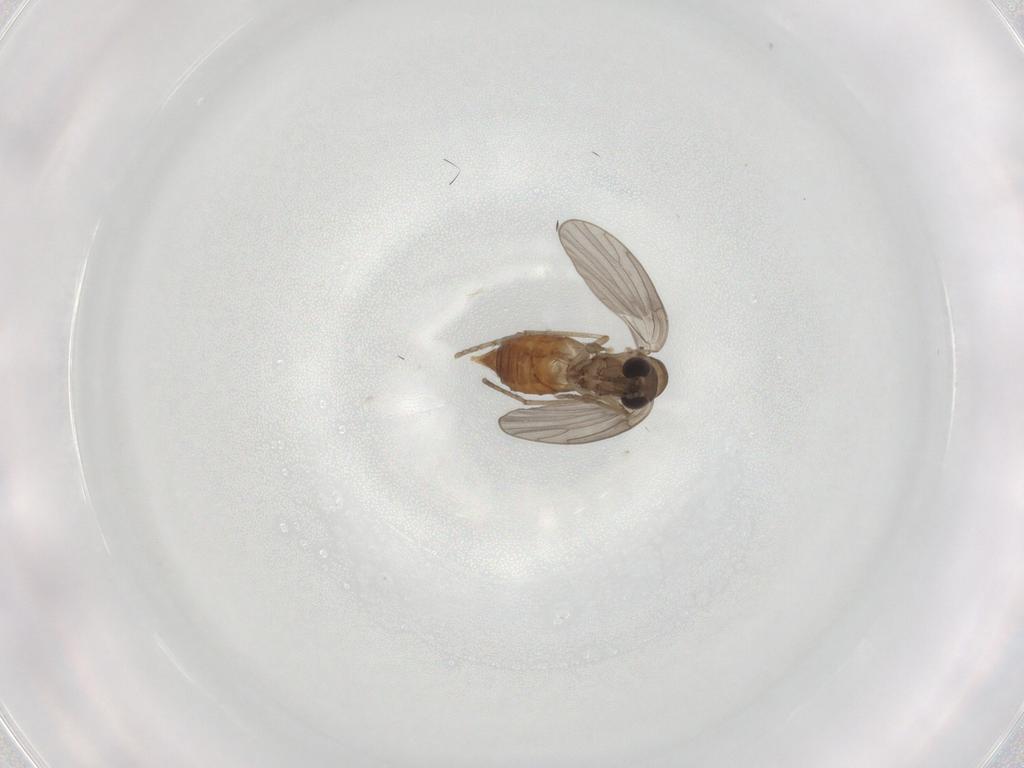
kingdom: Animalia
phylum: Arthropoda
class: Insecta
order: Diptera
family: Psychodidae
